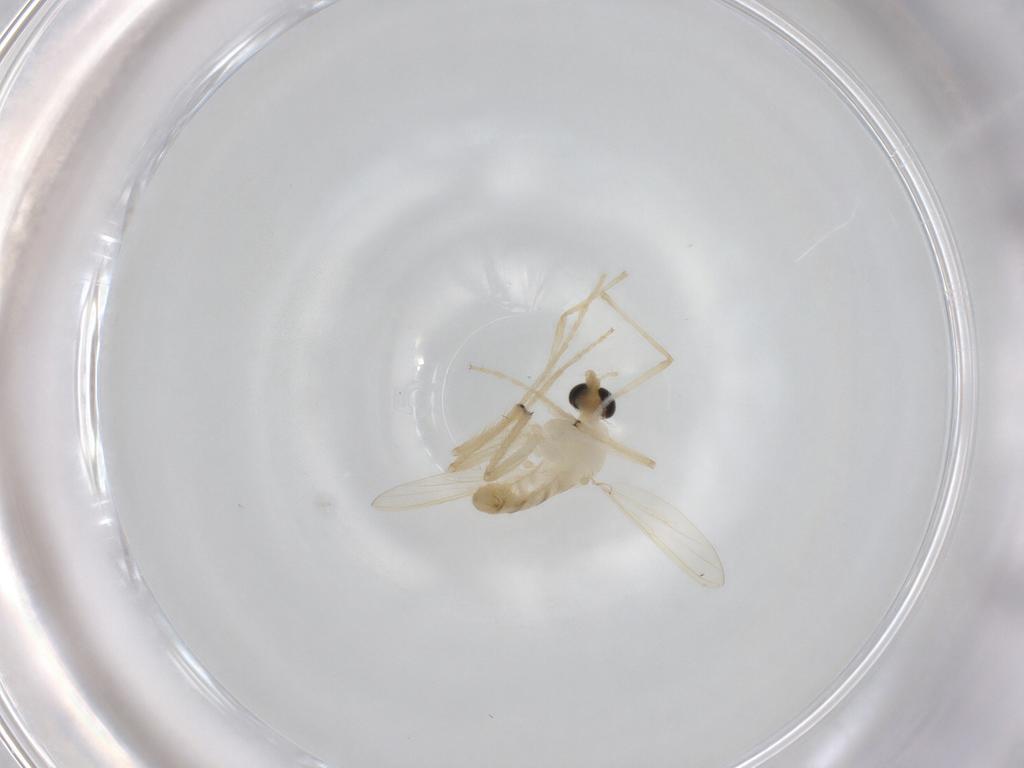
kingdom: Animalia
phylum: Arthropoda
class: Insecta
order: Diptera
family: Chironomidae
